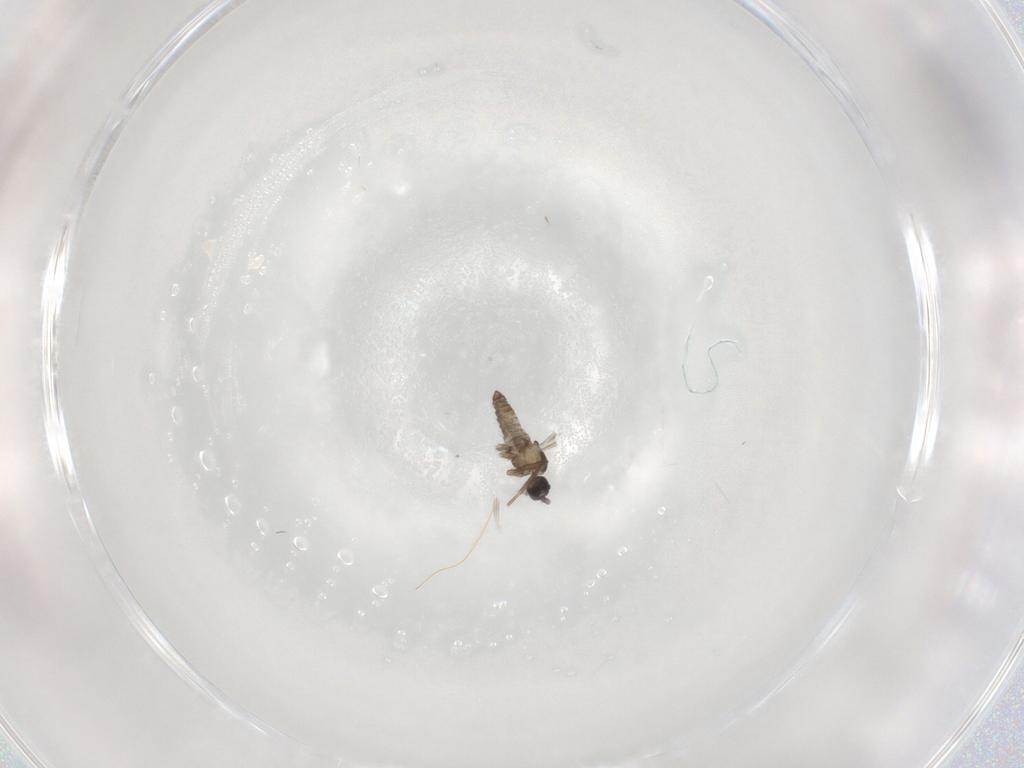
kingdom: Animalia
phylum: Arthropoda
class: Insecta
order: Diptera
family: Cecidomyiidae
